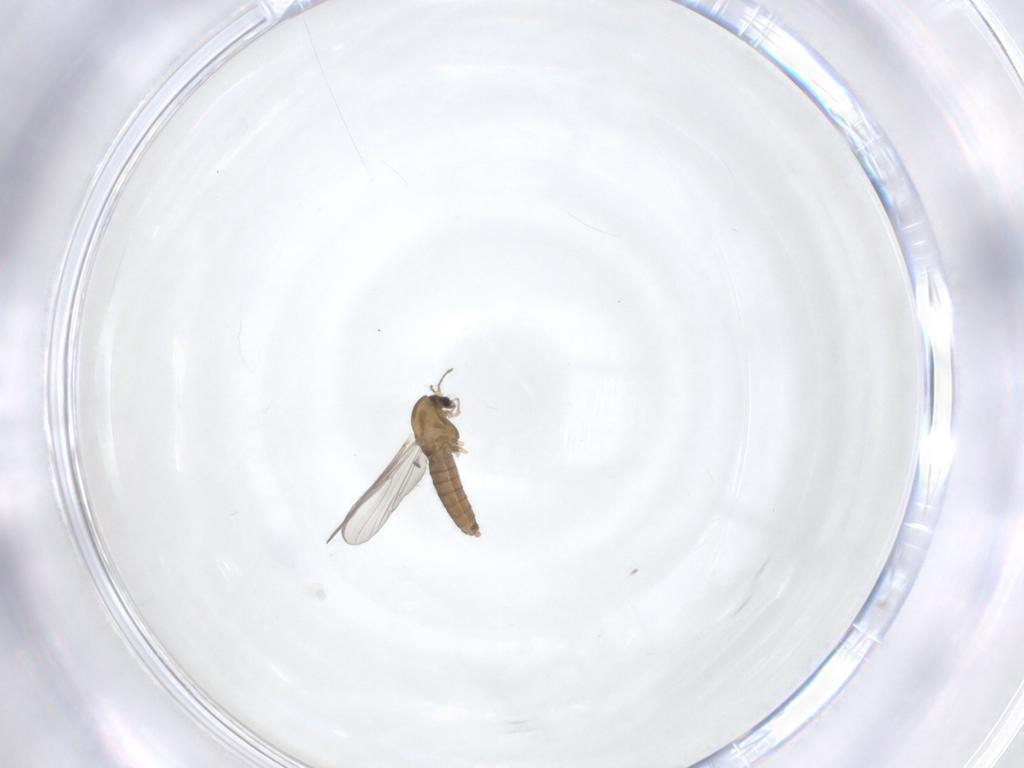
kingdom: Animalia
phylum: Arthropoda
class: Insecta
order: Diptera
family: Chironomidae
